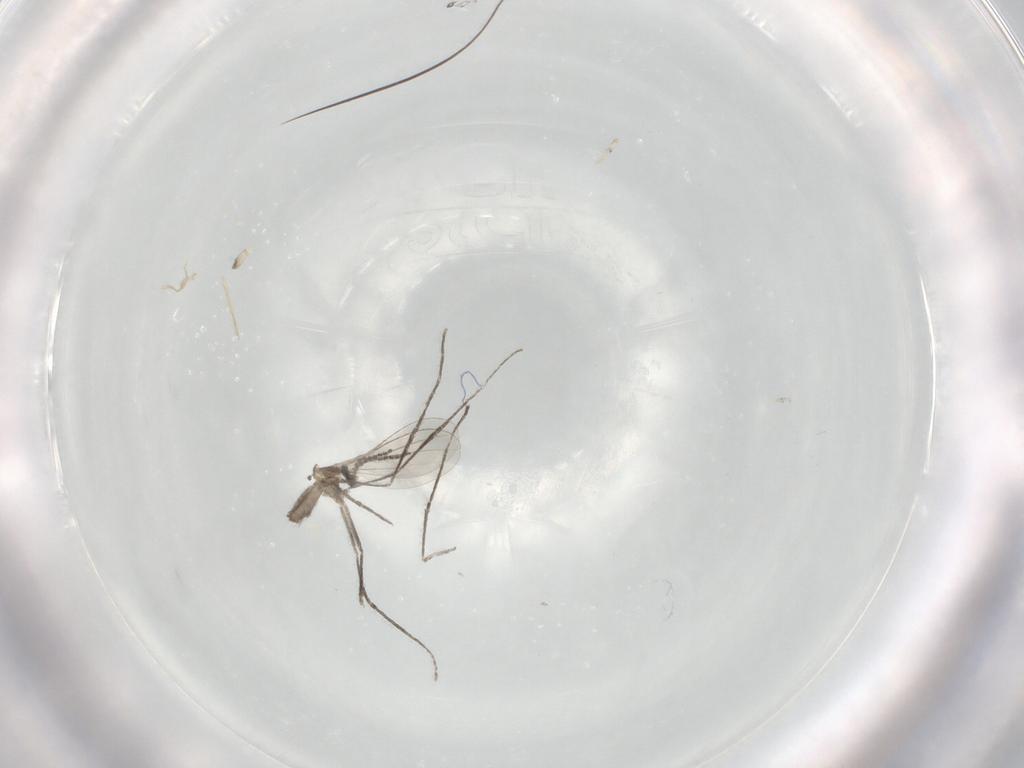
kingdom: Animalia
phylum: Arthropoda
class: Insecta
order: Diptera
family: Cecidomyiidae
